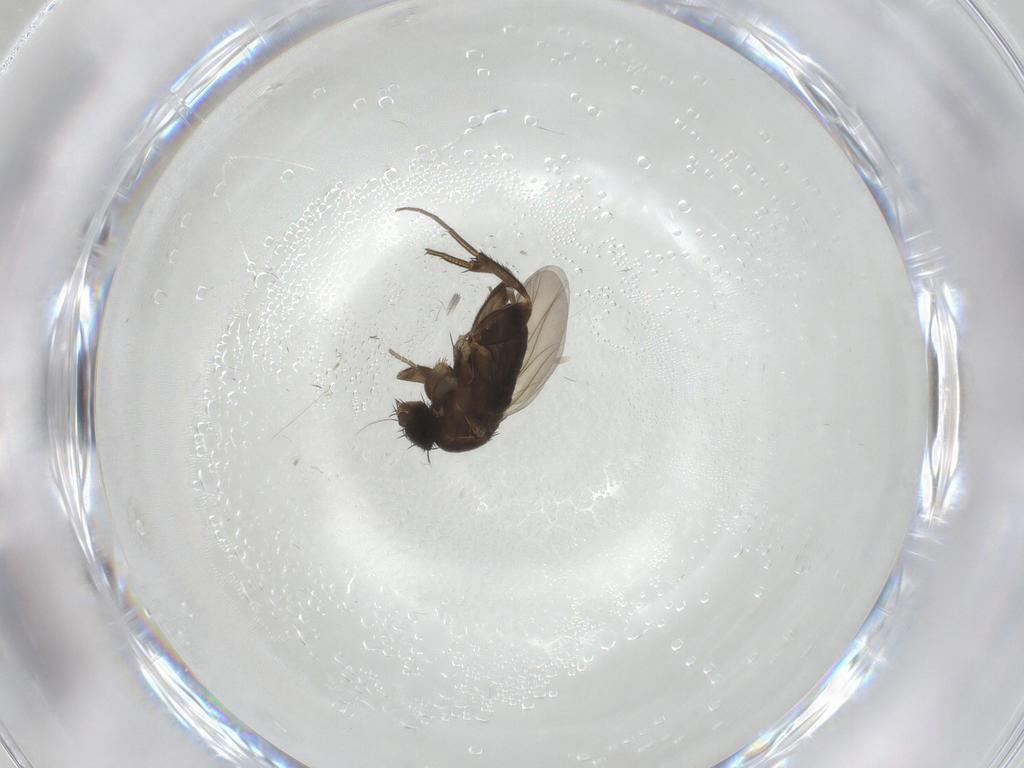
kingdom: Animalia
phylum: Arthropoda
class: Insecta
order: Diptera
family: Phoridae
